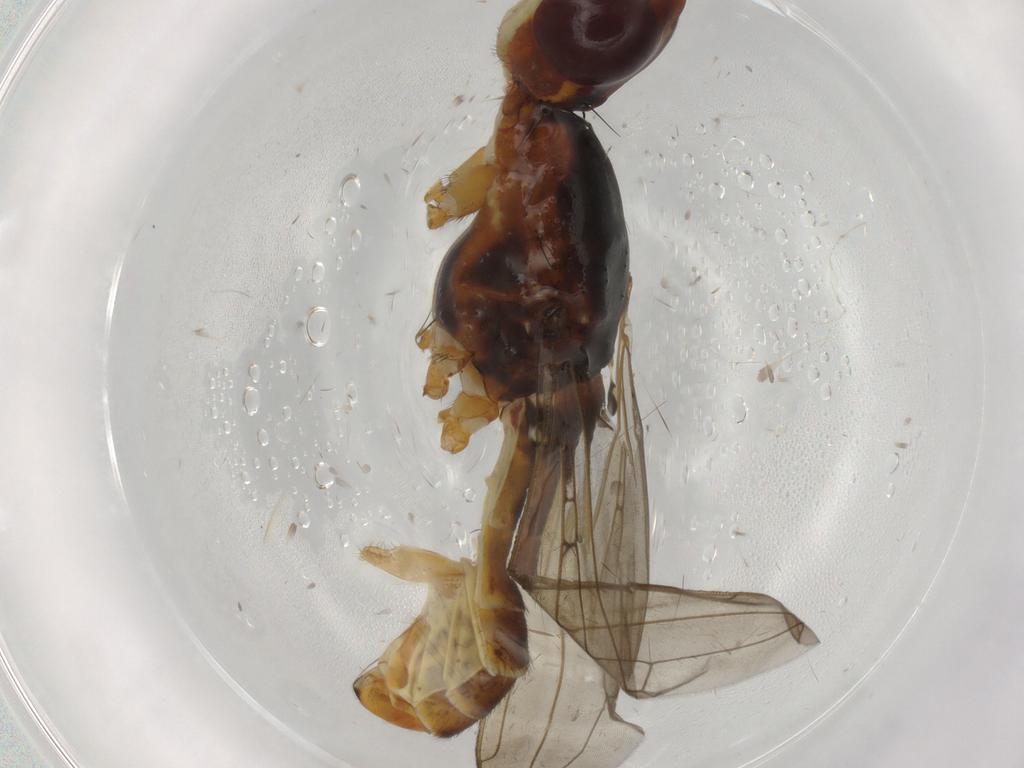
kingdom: Animalia
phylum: Arthropoda
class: Insecta
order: Diptera
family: Neriidae
